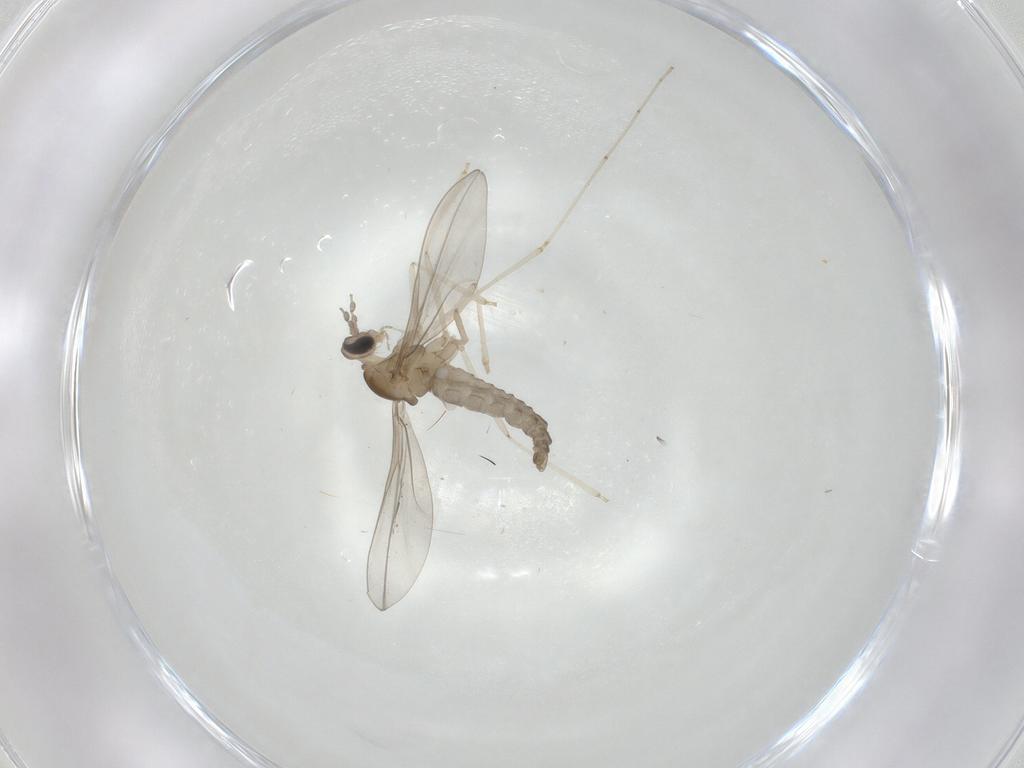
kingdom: Animalia
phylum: Arthropoda
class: Insecta
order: Diptera
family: Cecidomyiidae
